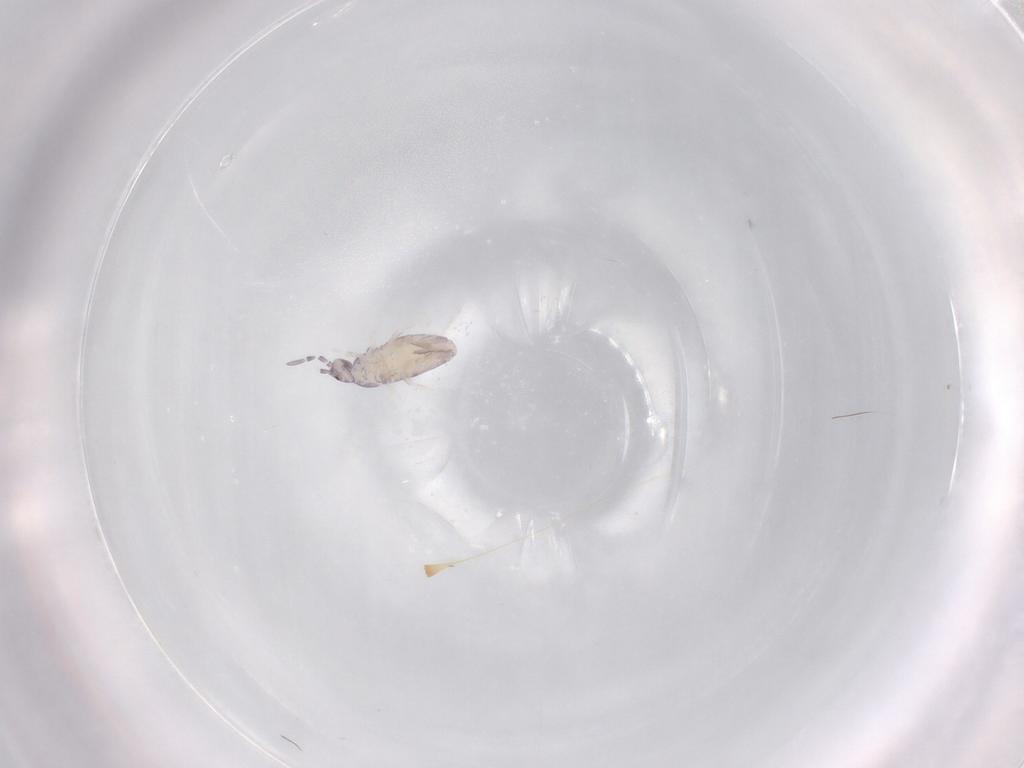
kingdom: Animalia
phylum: Arthropoda
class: Collembola
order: Entomobryomorpha
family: Entomobryidae
